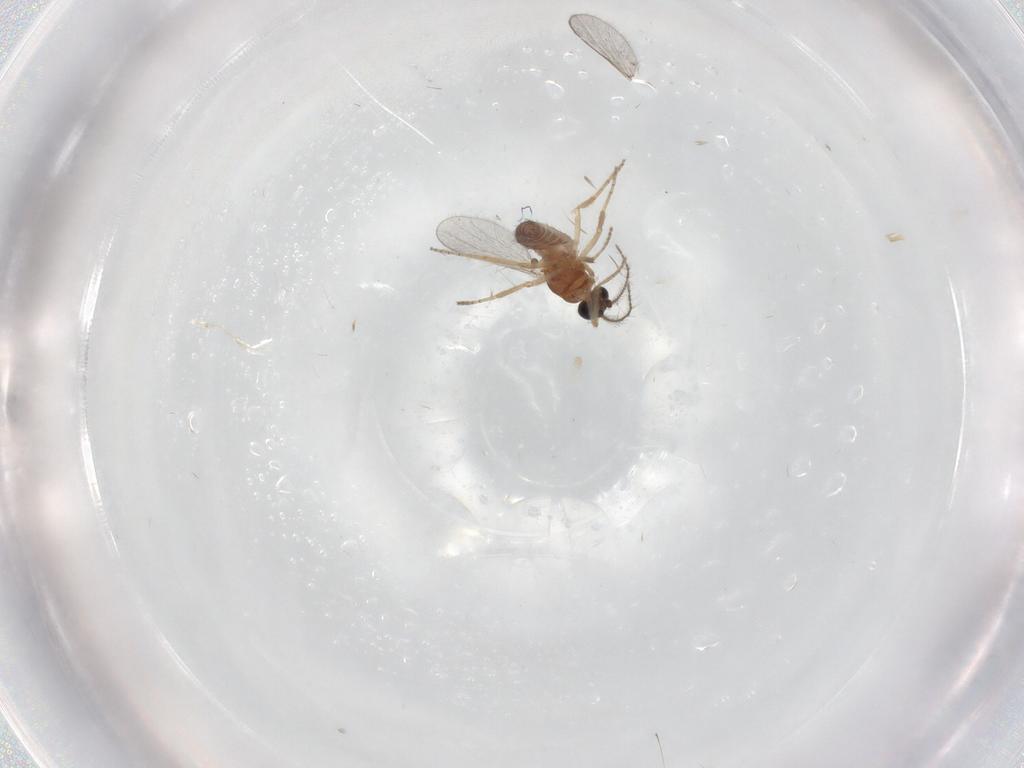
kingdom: Animalia
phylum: Arthropoda
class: Insecta
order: Diptera
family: Ceratopogonidae
